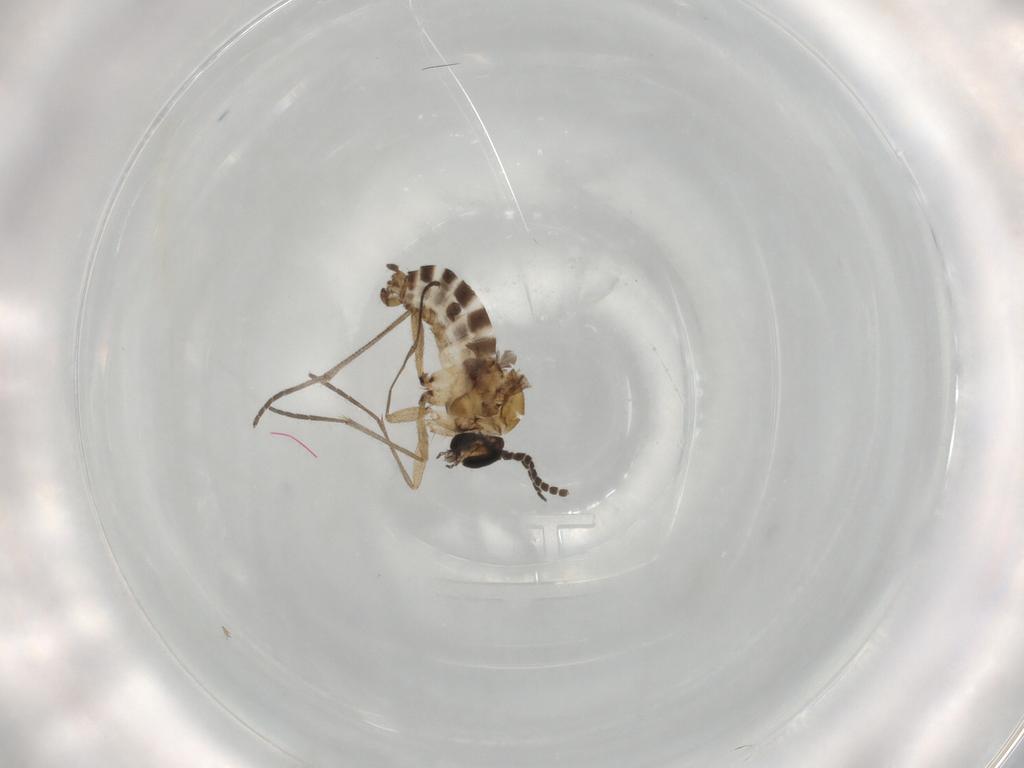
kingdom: Animalia
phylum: Arthropoda
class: Insecta
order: Diptera
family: Sciaridae
